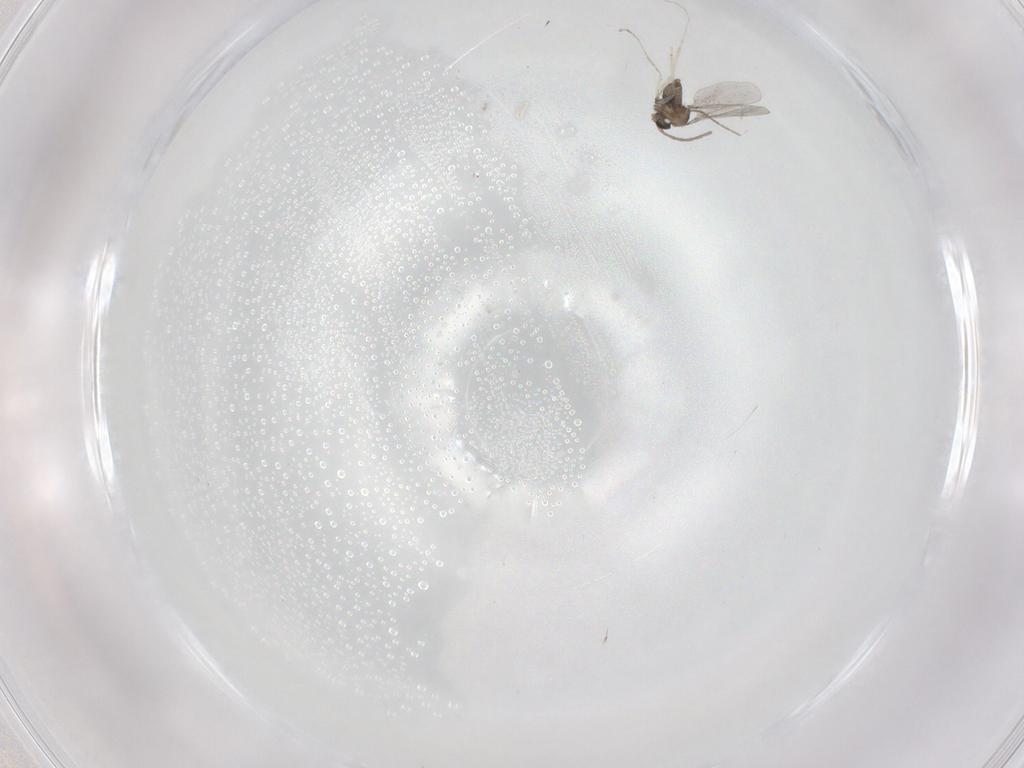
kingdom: Animalia
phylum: Arthropoda
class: Insecta
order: Diptera
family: Cecidomyiidae
